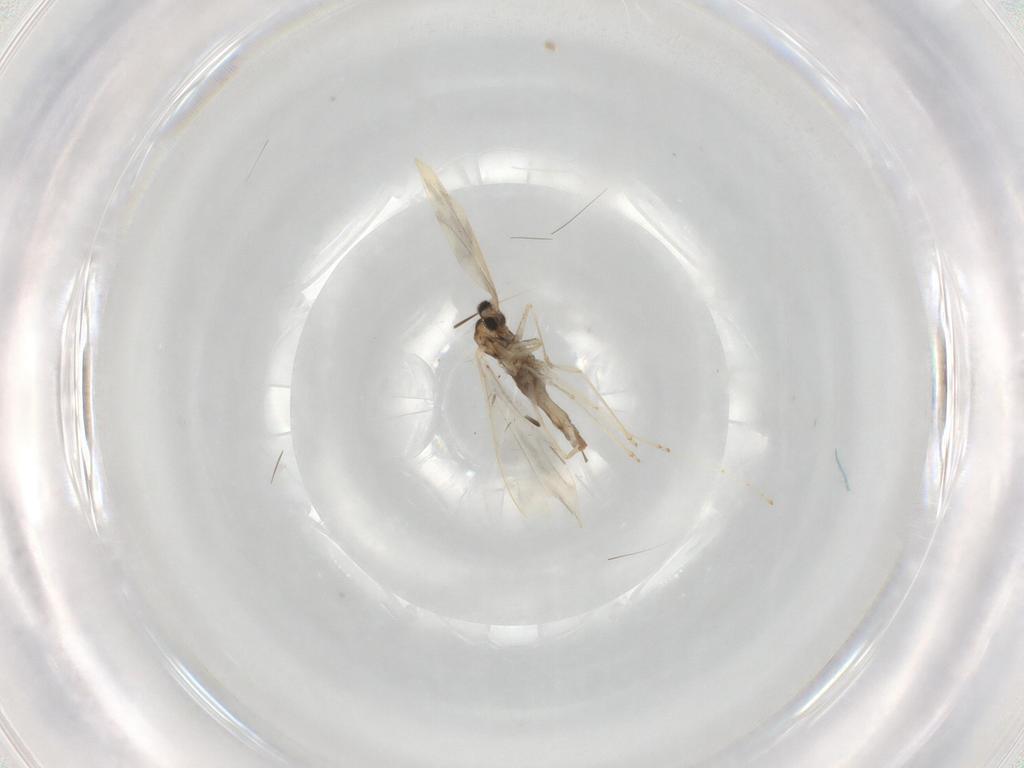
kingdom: Animalia
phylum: Arthropoda
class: Insecta
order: Diptera
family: Cecidomyiidae
